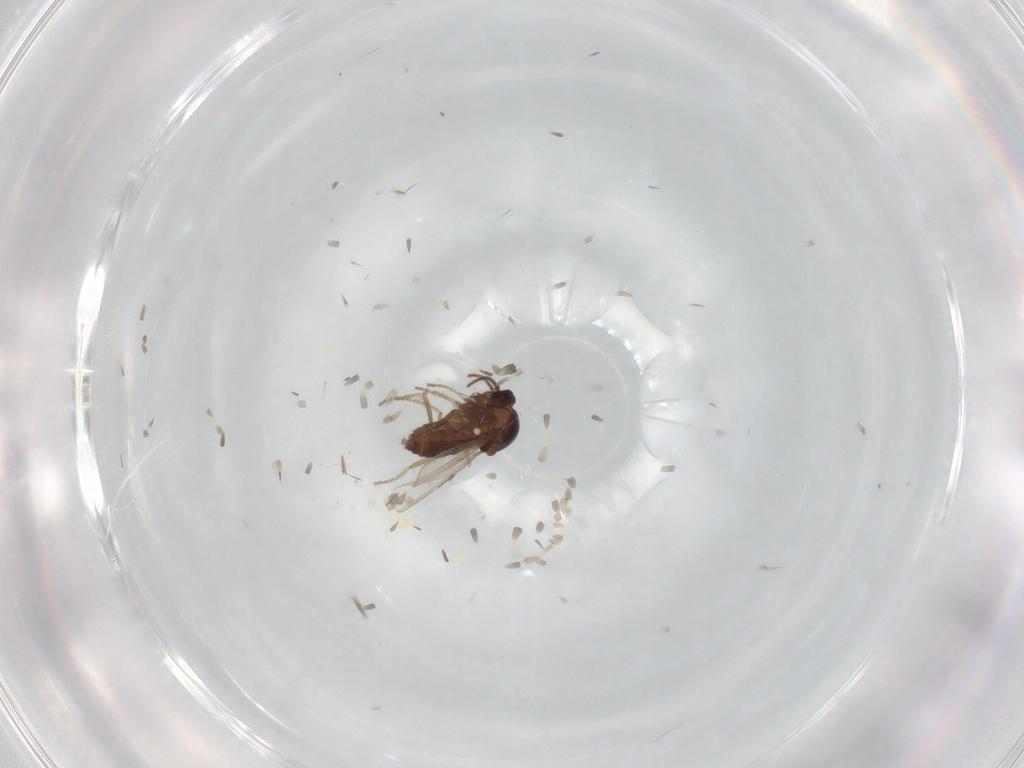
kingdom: Animalia
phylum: Arthropoda
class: Insecta
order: Diptera
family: Ceratopogonidae
